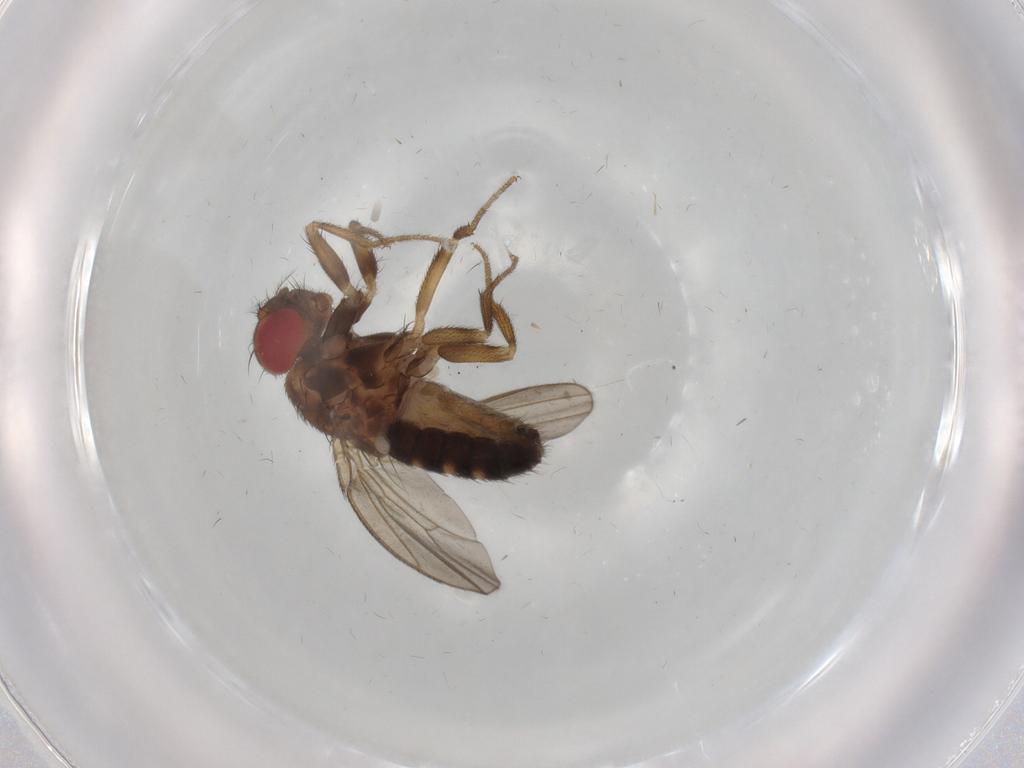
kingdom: Animalia
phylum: Arthropoda
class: Insecta
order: Diptera
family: Drosophilidae
